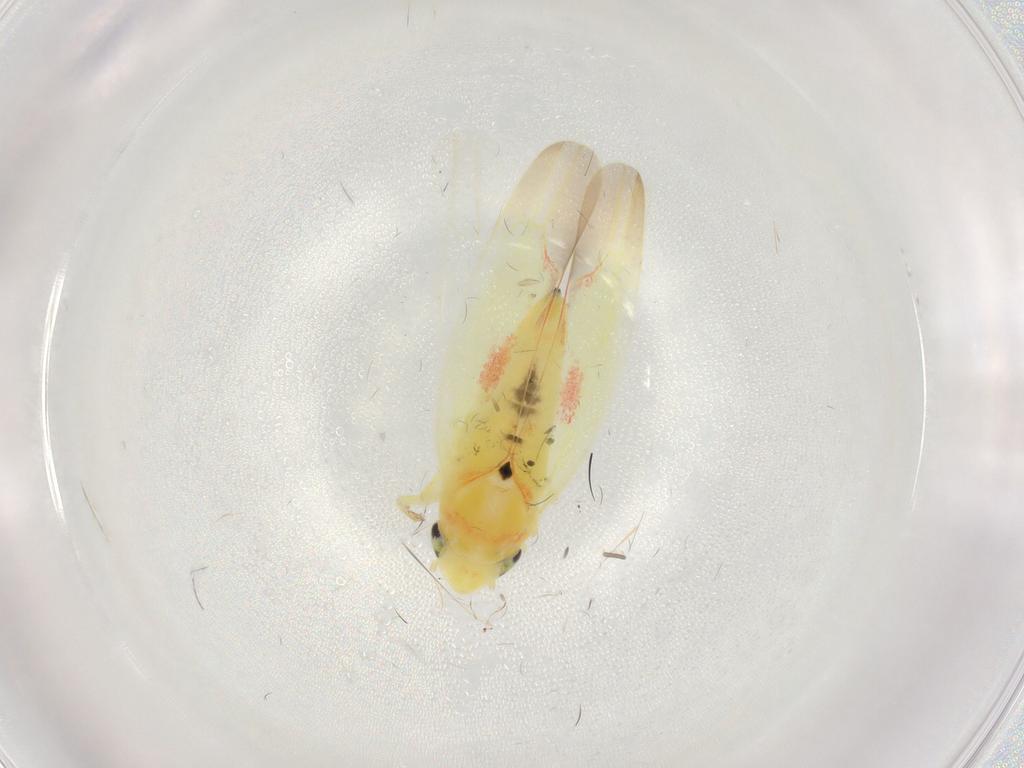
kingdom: Animalia
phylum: Arthropoda
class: Insecta
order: Hemiptera
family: Cicadellidae
